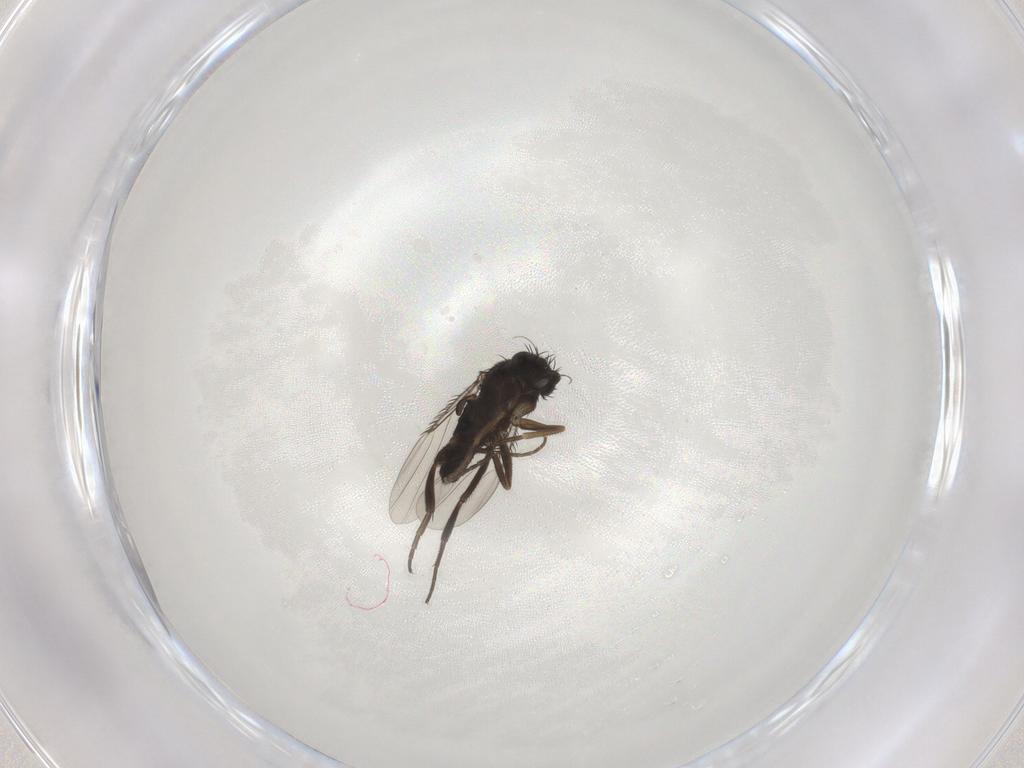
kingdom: Animalia
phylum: Arthropoda
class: Insecta
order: Diptera
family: Phoridae
